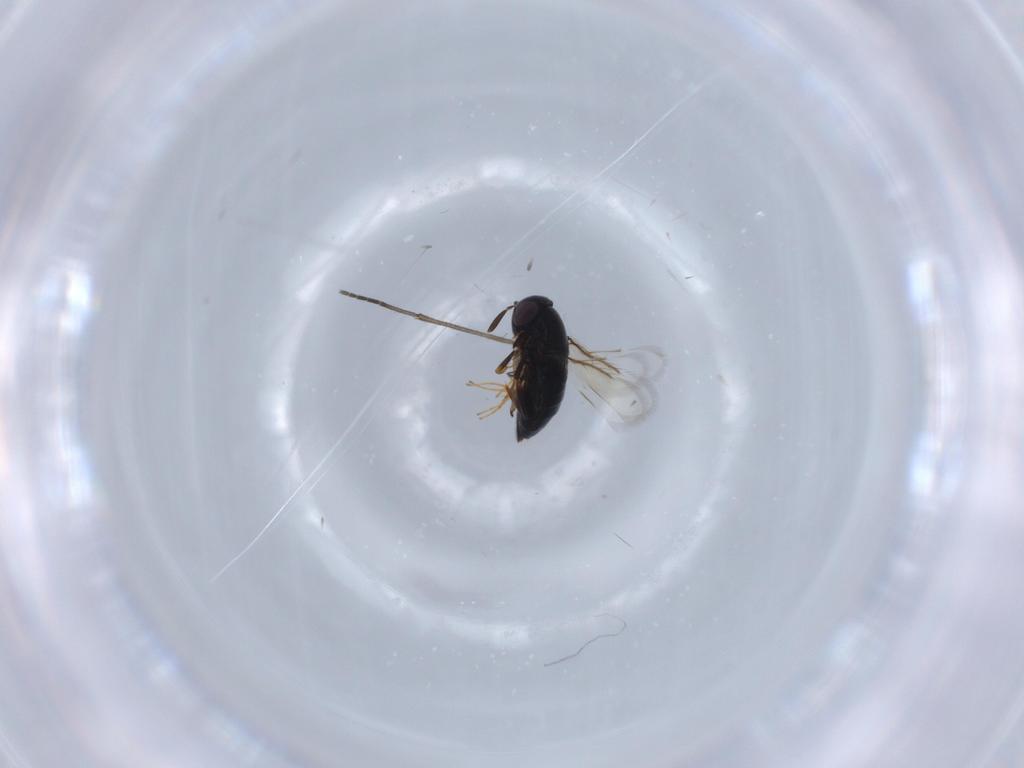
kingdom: Animalia
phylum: Arthropoda
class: Insecta
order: Hymenoptera
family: Signiphoridae
